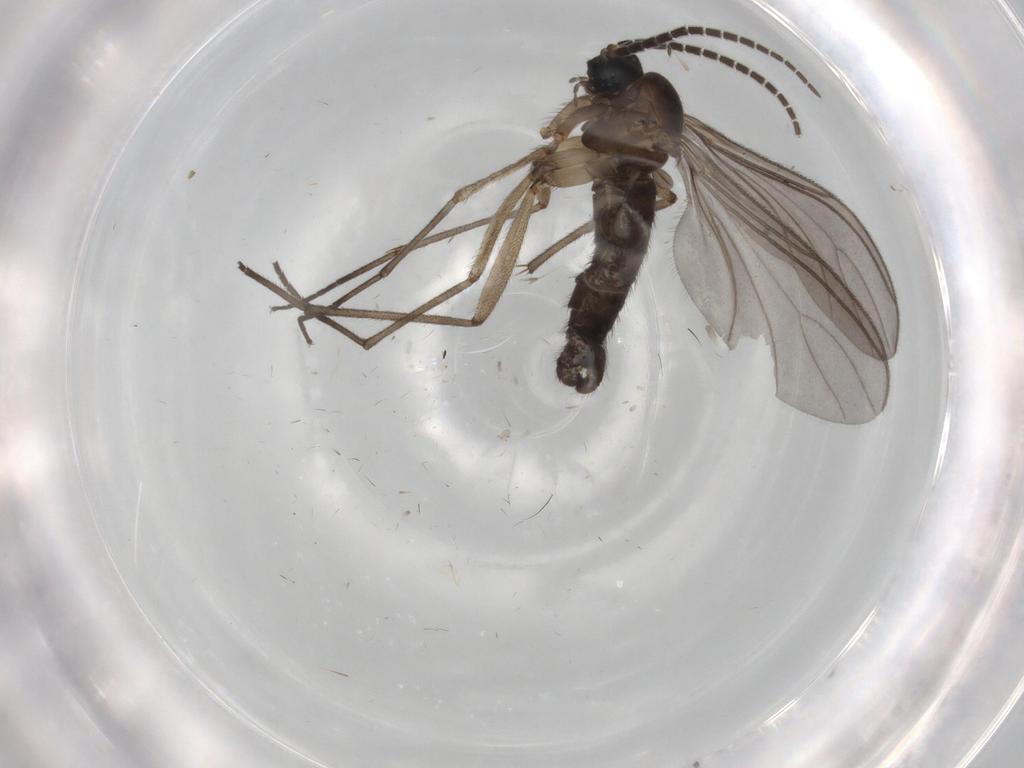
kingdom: Animalia
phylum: Arthropoda
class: Insecta
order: Diptera
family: Sciaridae
